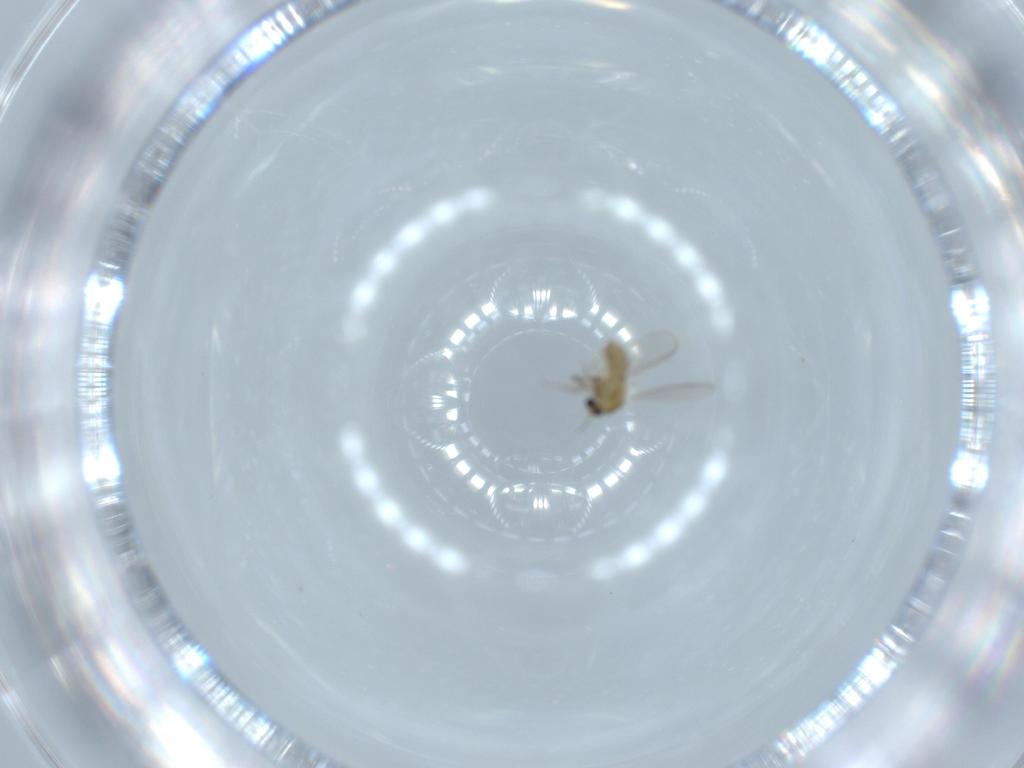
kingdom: Animalia
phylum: Arthropoda
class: Insecta
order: Diptera
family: Chironomidae
